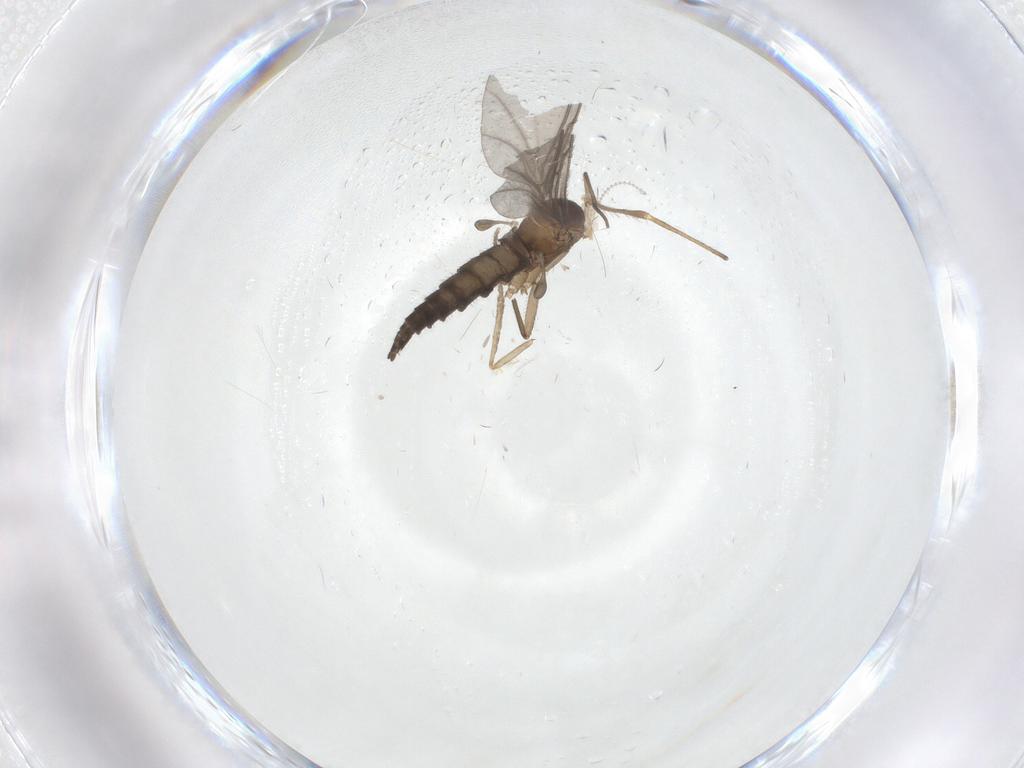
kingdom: Animalia
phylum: Arthropoda
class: Insecta
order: Diptera
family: Sciaridae
